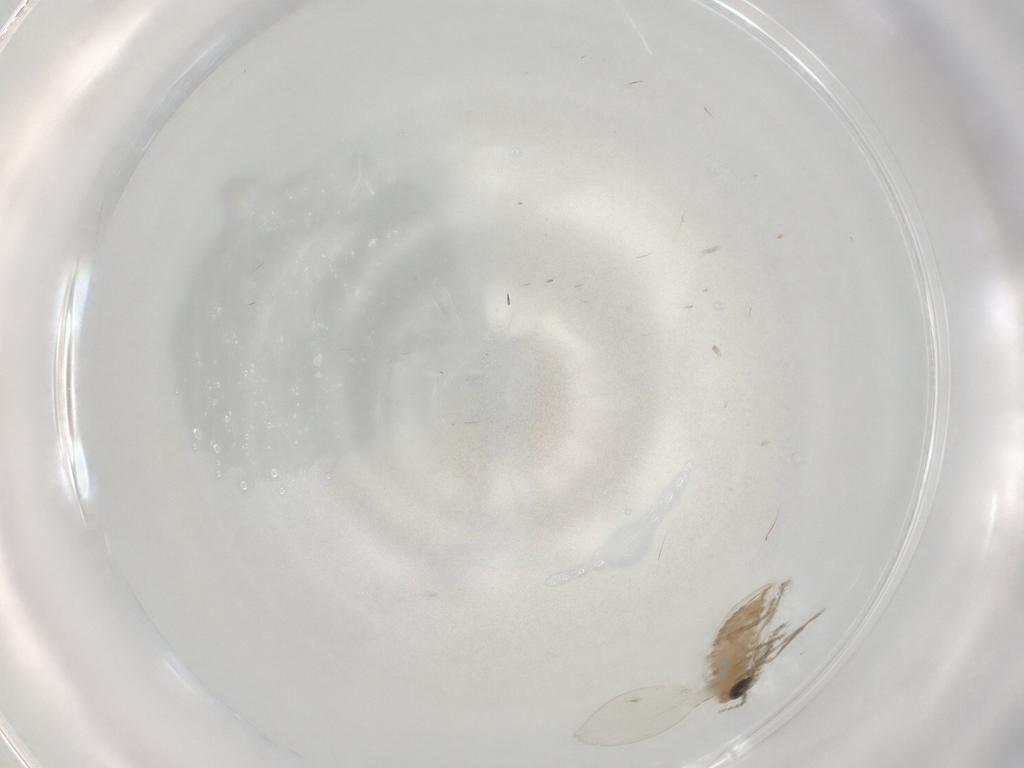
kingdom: Animalia
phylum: Arthropoda
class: Insecta
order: Diptera
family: Psychodidae
